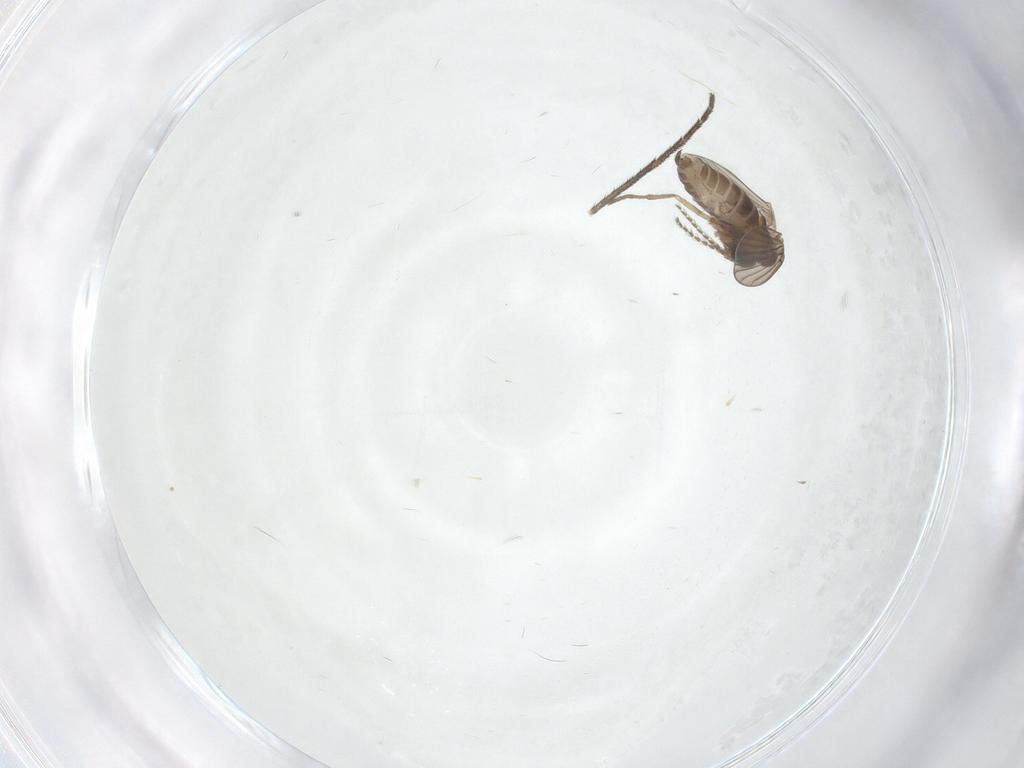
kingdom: Animalia
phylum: Arthropoda
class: Insecta
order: Diptera
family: Sciaridae
